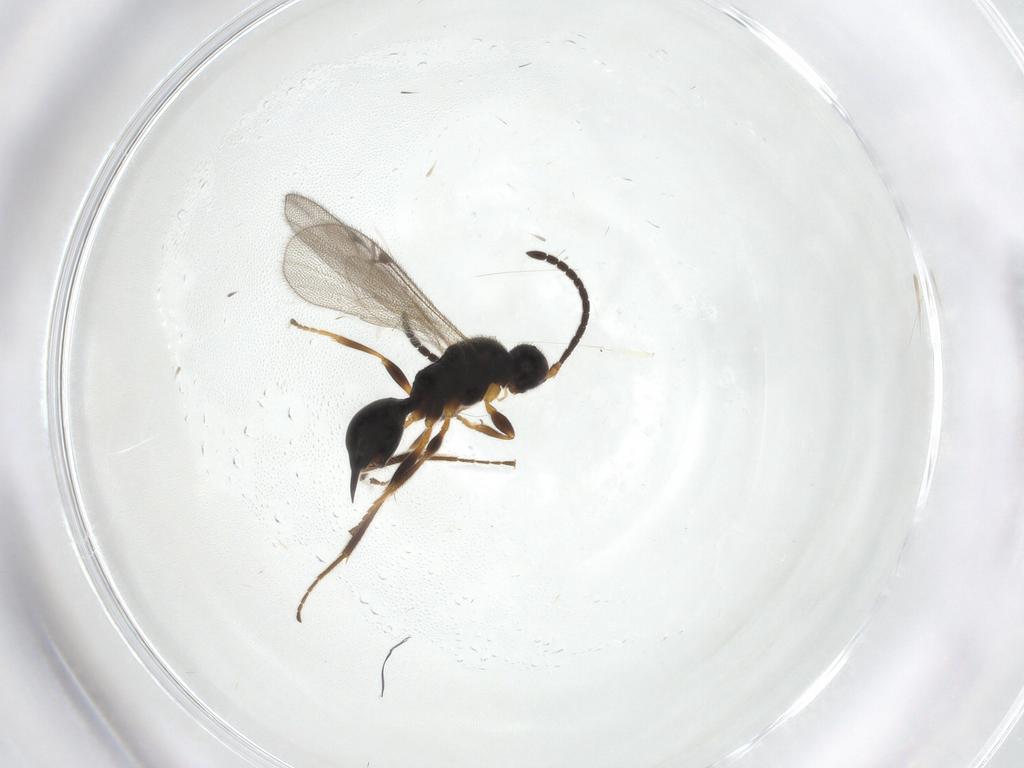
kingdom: Animalia
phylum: Arthropoda
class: Insecta
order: Hymenoptera
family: Proctotrupidae
